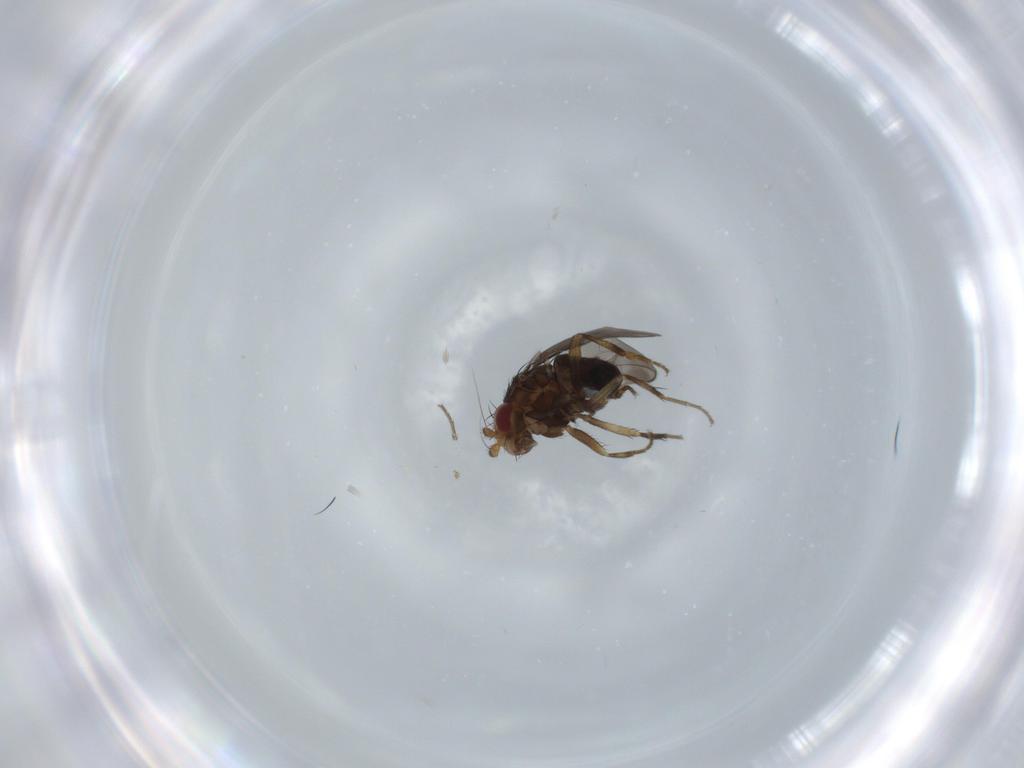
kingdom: Animalia
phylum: Arthropoda
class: Insecta
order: Diptera
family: Sphaeroceridae
